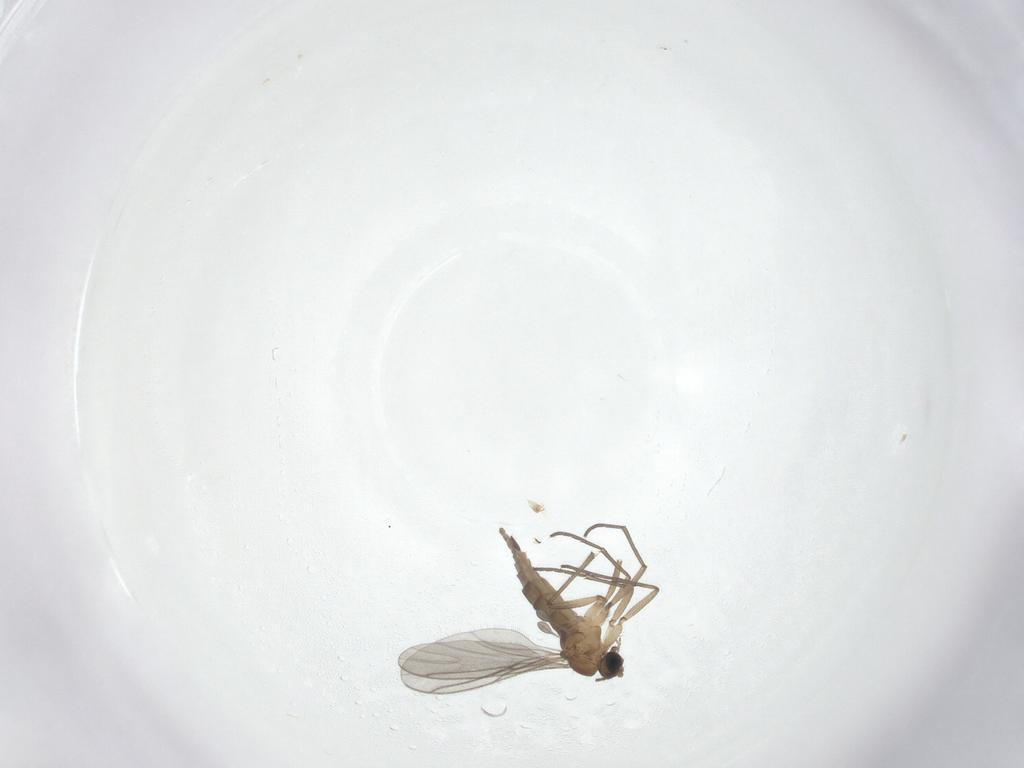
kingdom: Animalia
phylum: Arthropoda
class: Insecta
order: Diptera
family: Sciaridae
